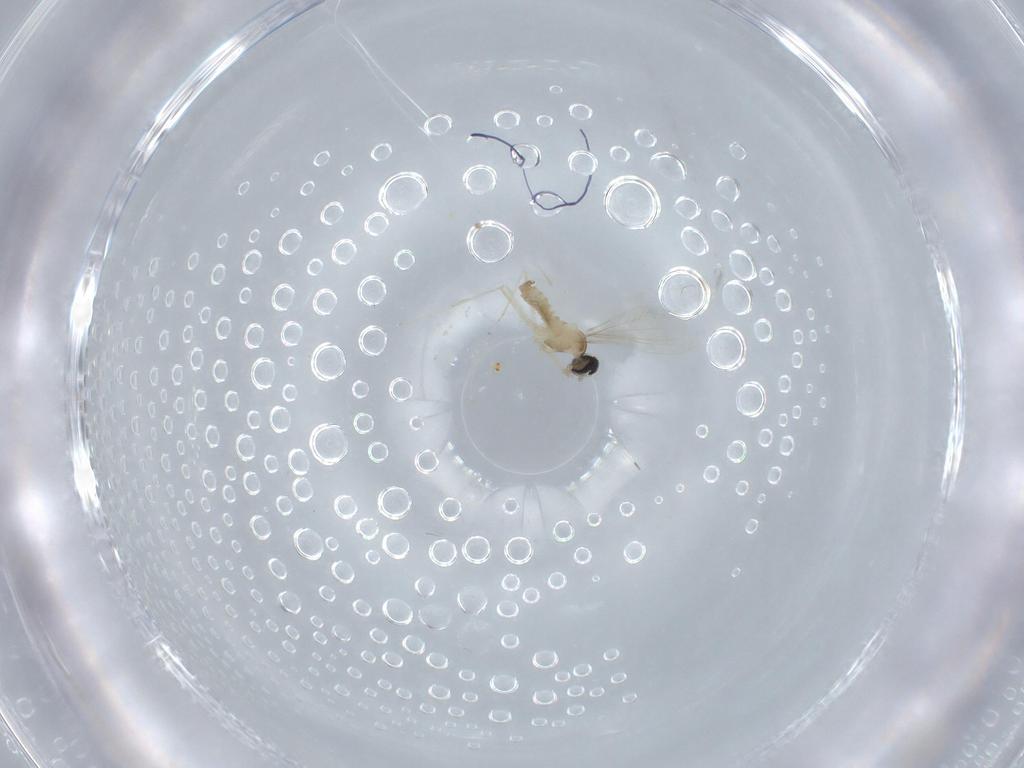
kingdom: Animalia
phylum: Arthropoda
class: Insecta
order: Diptera
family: Cecidomyiidae
